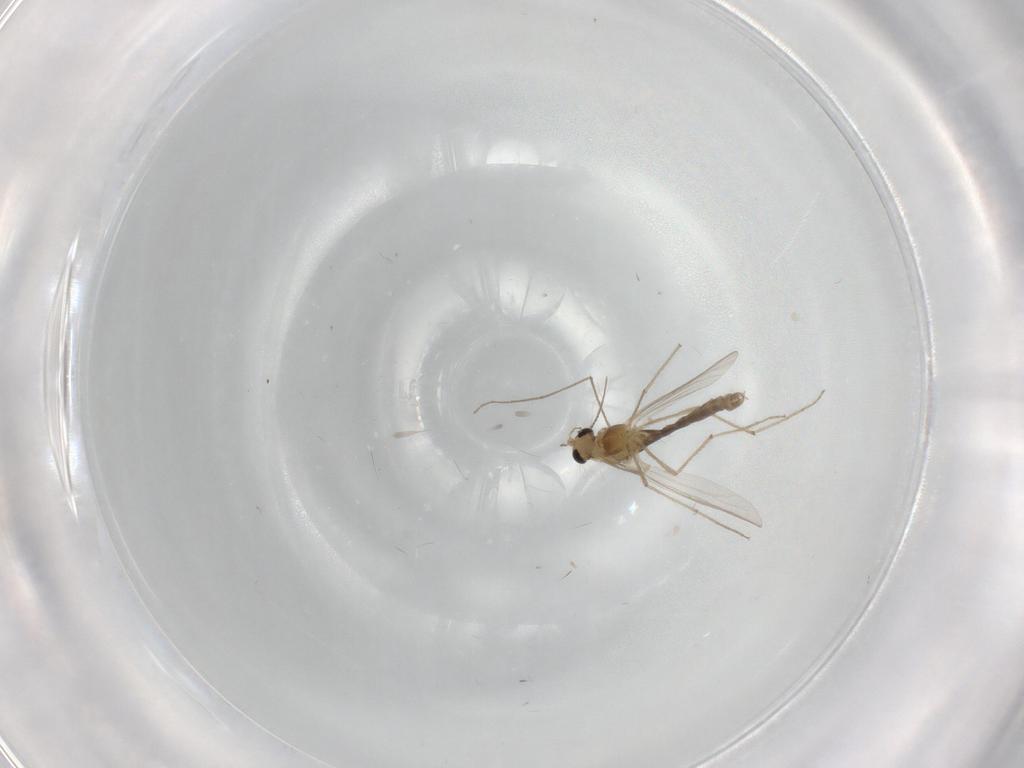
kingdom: Animalia
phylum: Arthropoda
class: Insecta
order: Diptera
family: Chironomidae
